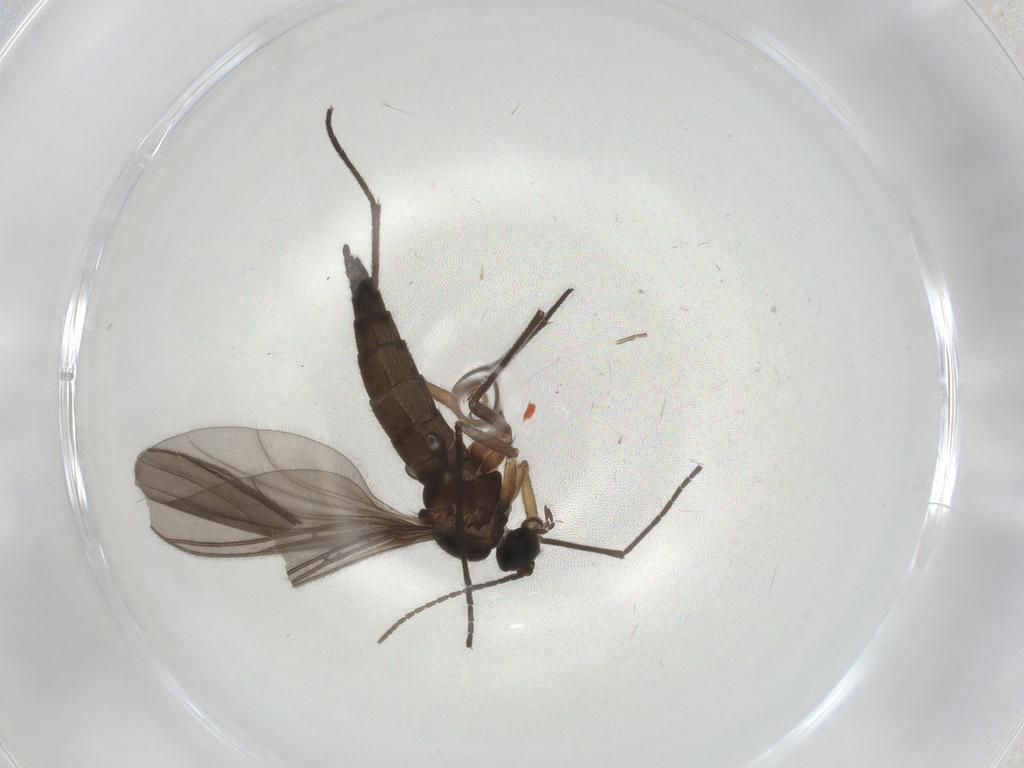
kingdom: Animalia
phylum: Arthropoda
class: Insecta
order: Diptera
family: Sciaridae
